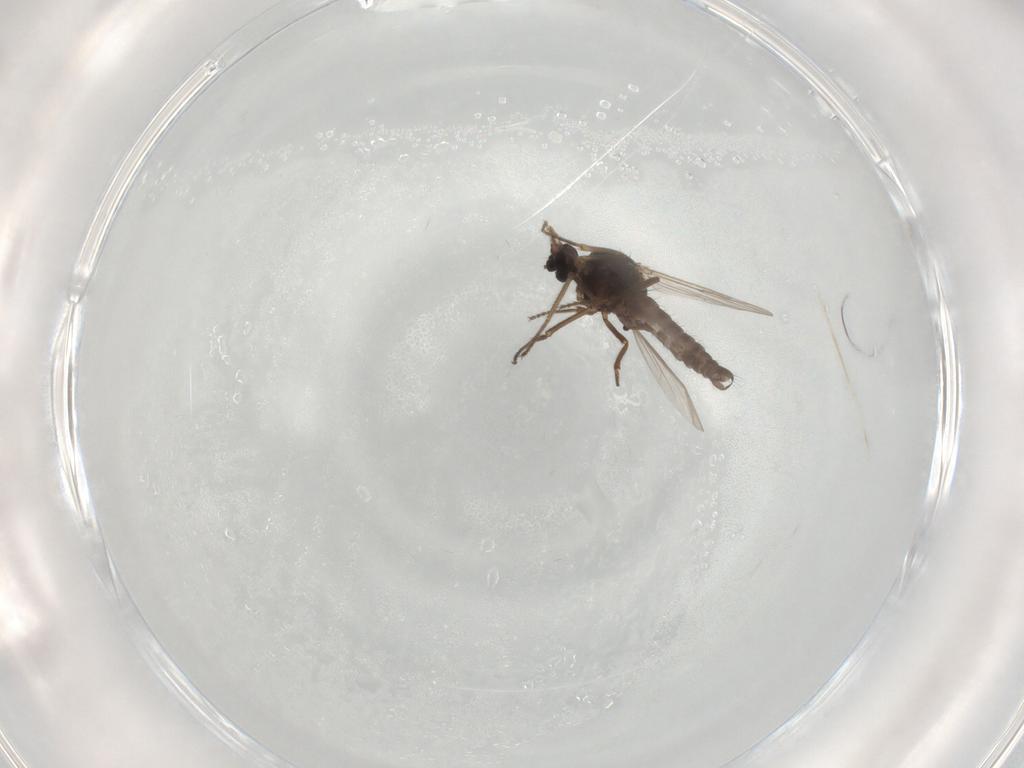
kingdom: Animalia
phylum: Arthropoda
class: Insecta
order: Diptera
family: Ceratopogonidae
